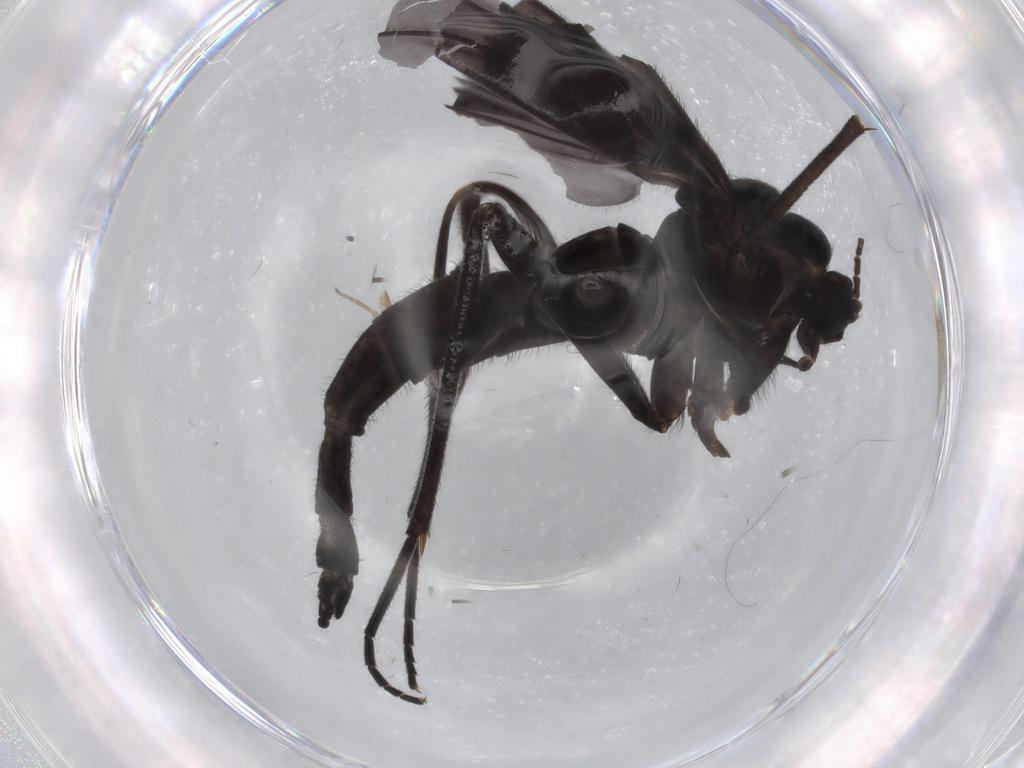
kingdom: Animalia
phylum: Arthropoda
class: Insecta
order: Diptera
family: Sciaridae
